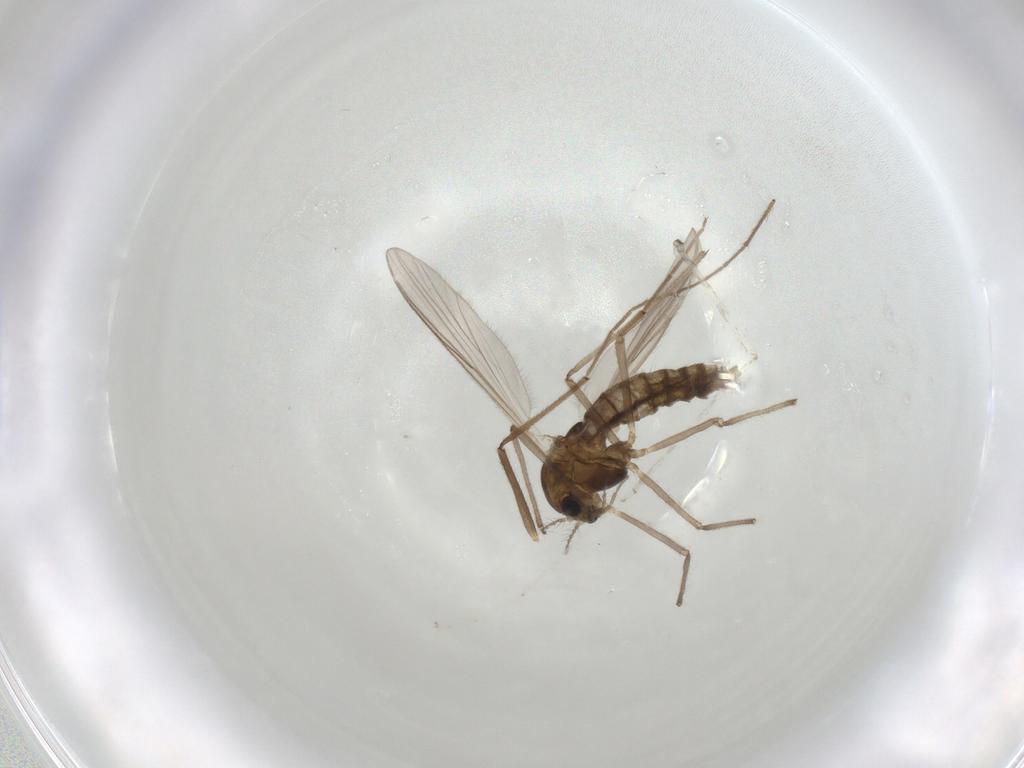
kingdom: Animalia
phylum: Arthropoda
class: Insecta
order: Diptera
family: Chironomidae
